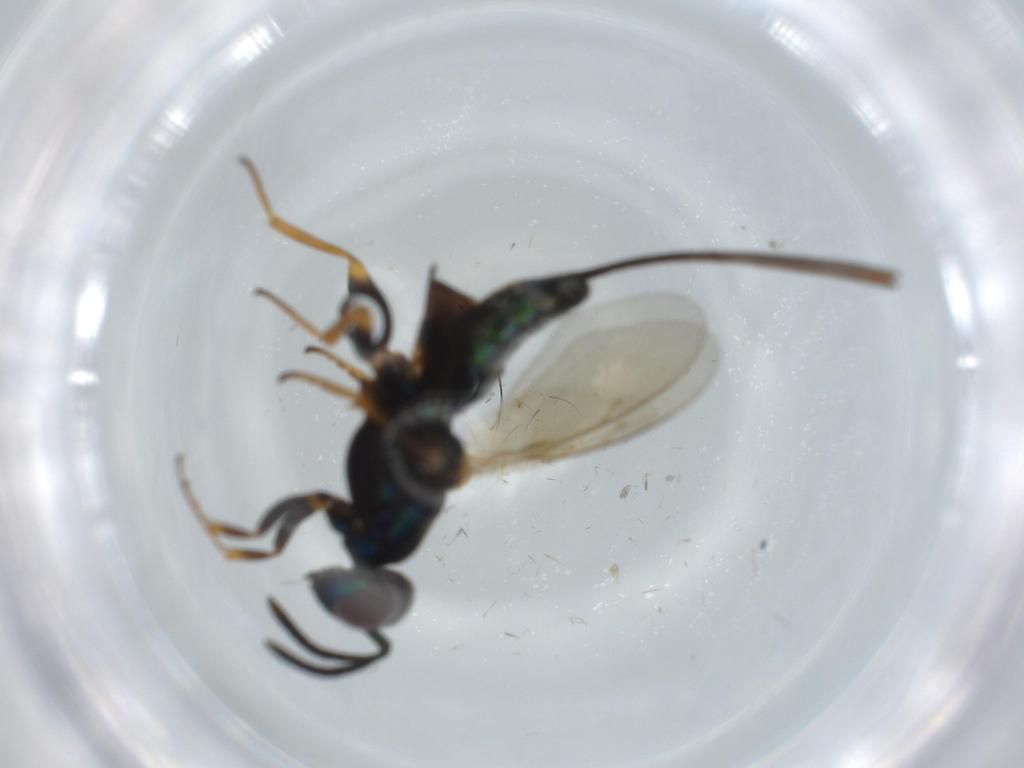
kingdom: Animalia
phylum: Arthropoda
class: Insecta
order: Hymenoptera
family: Eupelmidae
